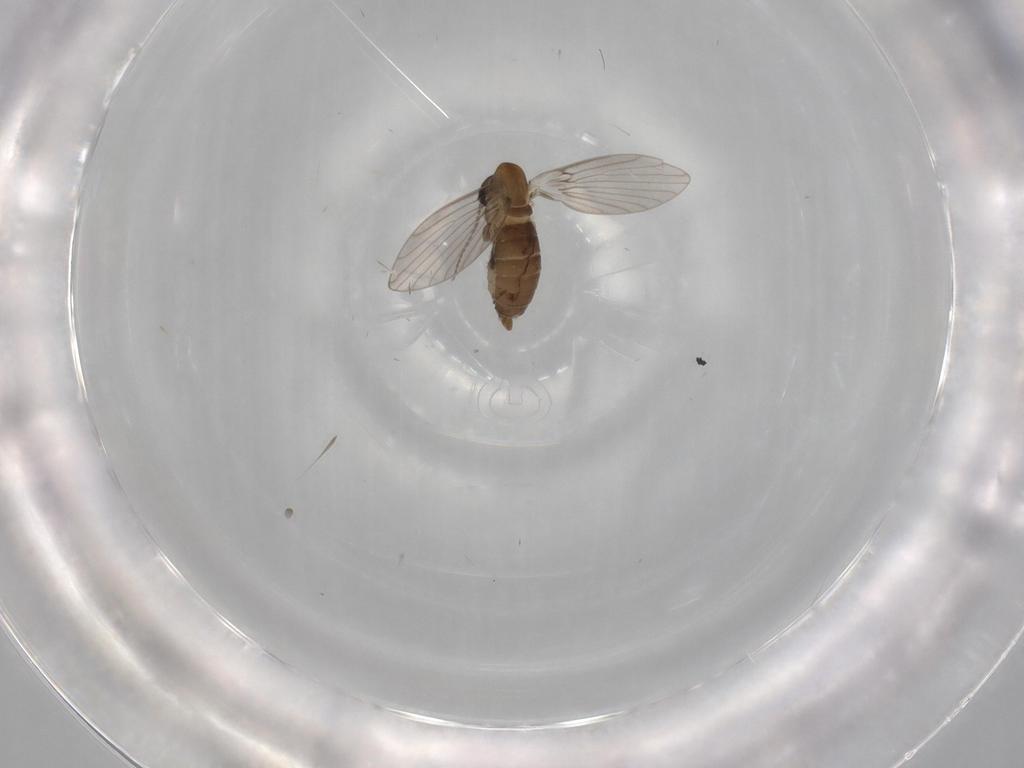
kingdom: Animalia
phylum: Arthropoda
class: Insecta
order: Diptera
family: Psychodidae
